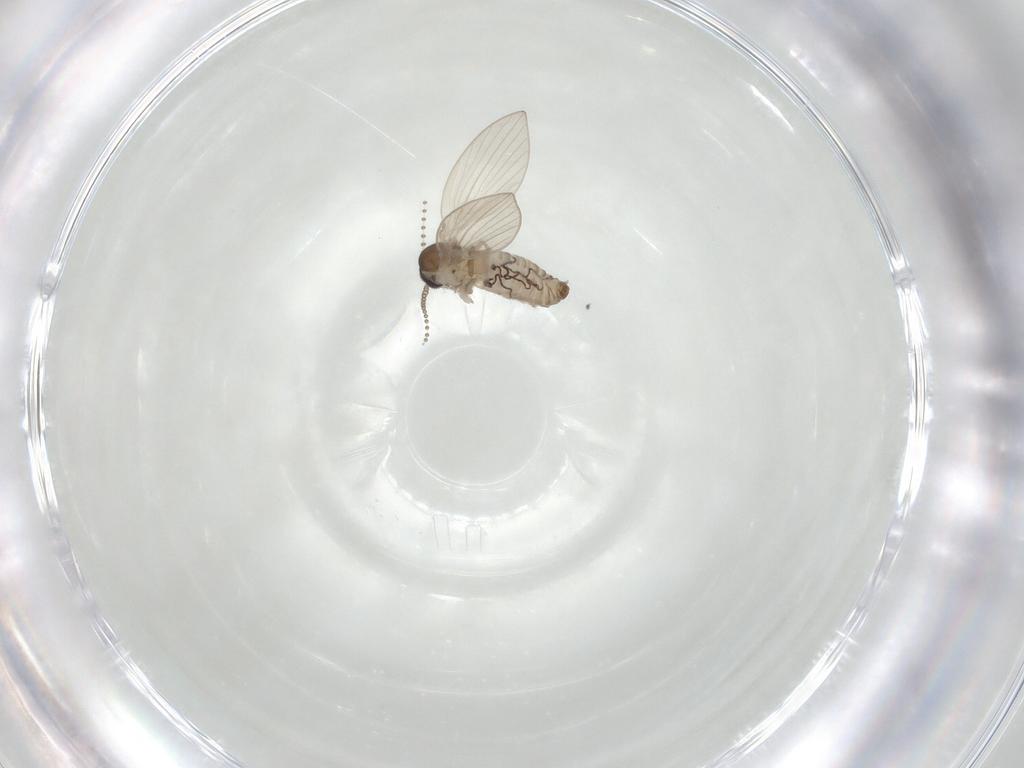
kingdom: Animalia
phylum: Arthropoda
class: Insecta
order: Diptera
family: Psychodidae
